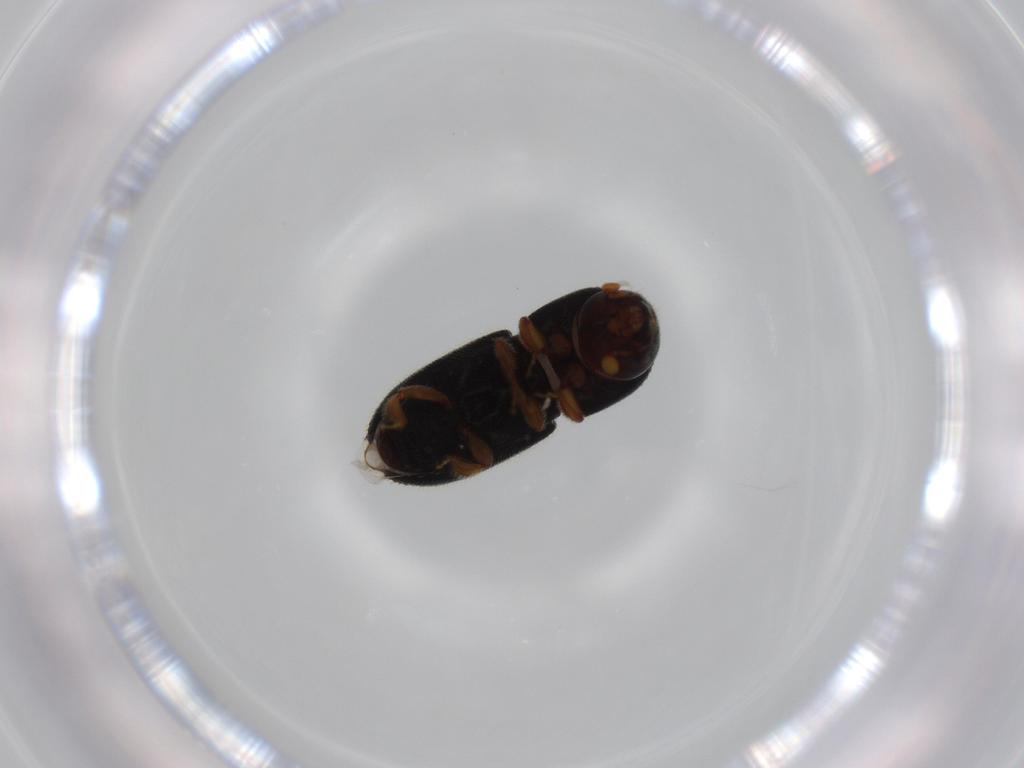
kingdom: Animalia
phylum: Arthropoda
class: Insecta
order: Coleoptera
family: Curculionidae
